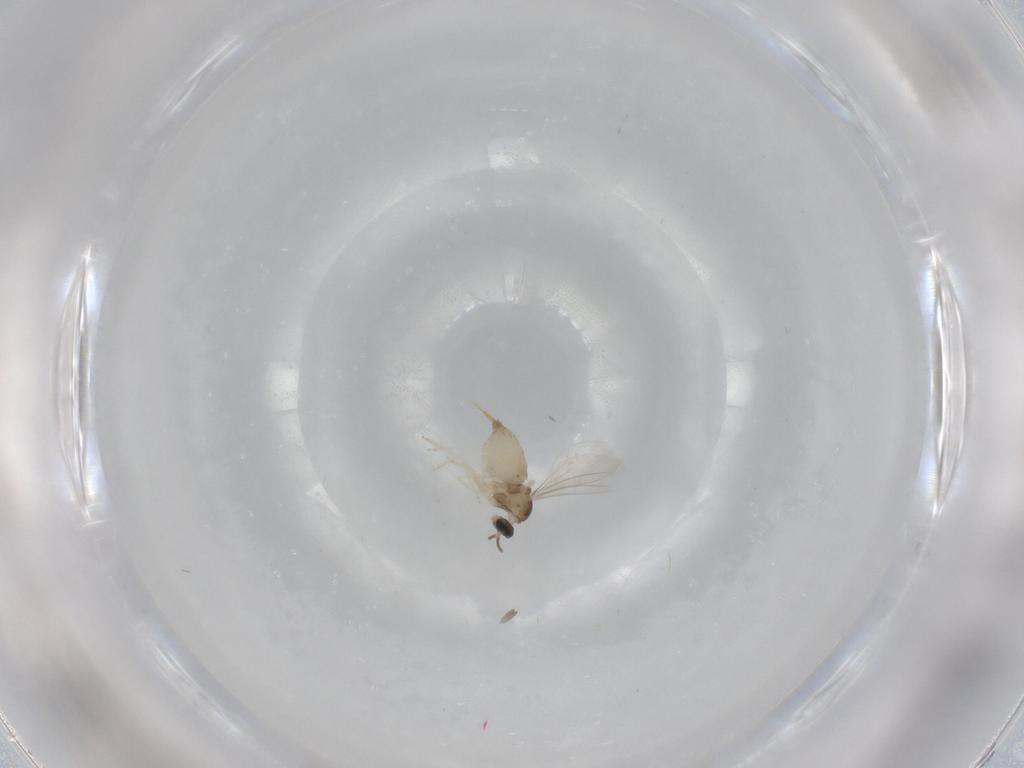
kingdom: Animalia
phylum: Arthropoda
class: Insecta
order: Diptera
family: Cecidomyiidae
